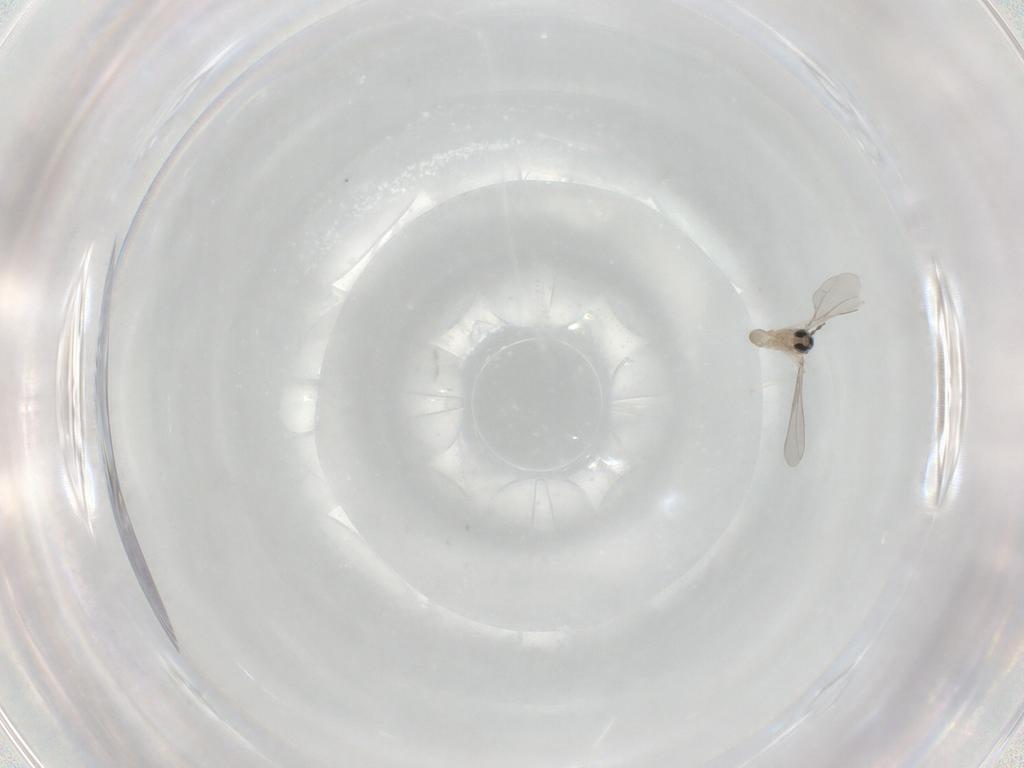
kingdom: Animalia
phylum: Arthropoda
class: Insecta
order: Diptera
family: Cecidomyiidae
